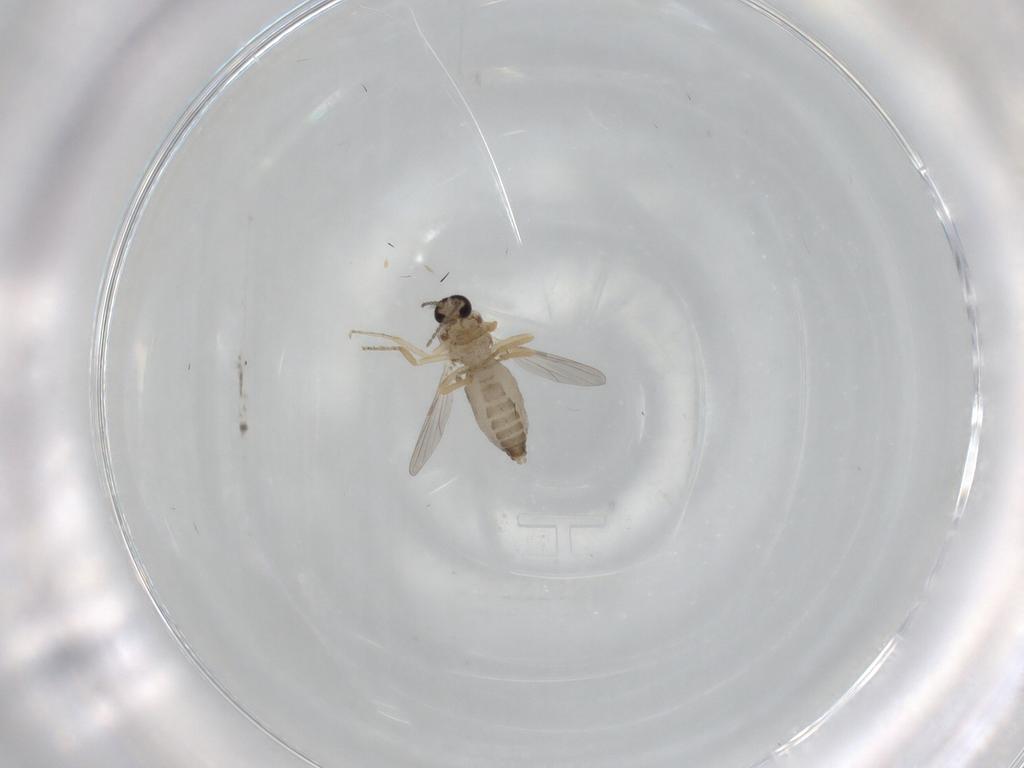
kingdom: Animalia
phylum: Arthropoda
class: Insecta
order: Diptera
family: Ceratopogonidae
